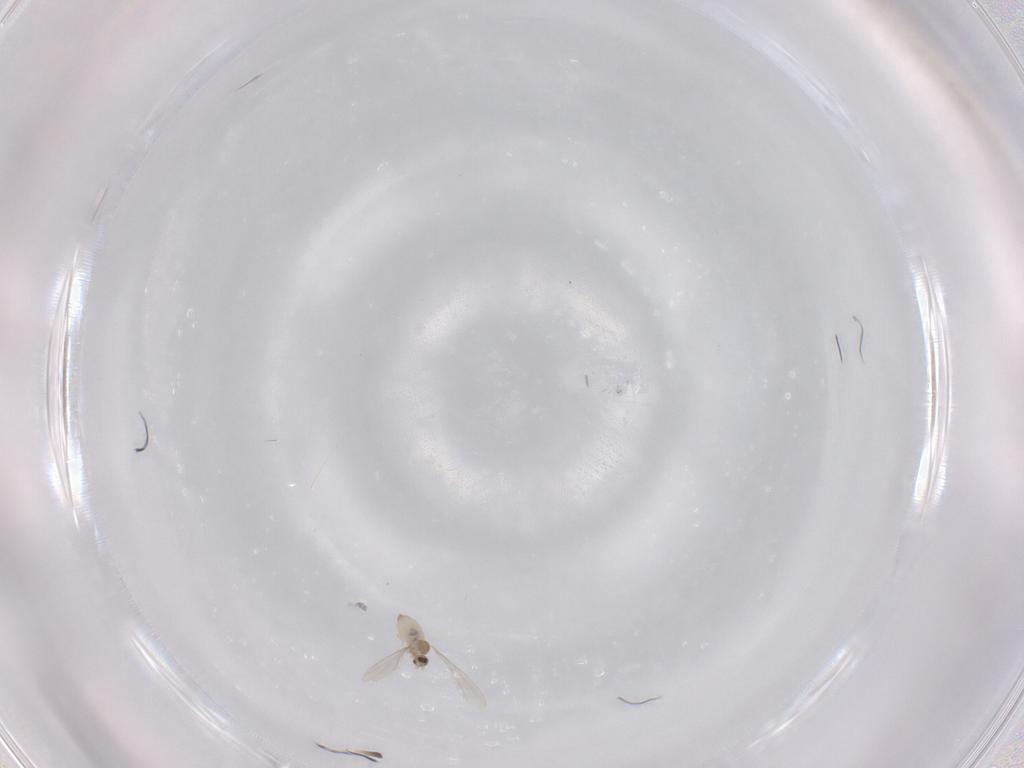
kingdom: Animalia
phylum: Arthropoda
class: Insecta
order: Diptera
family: Cecidomyiidae
